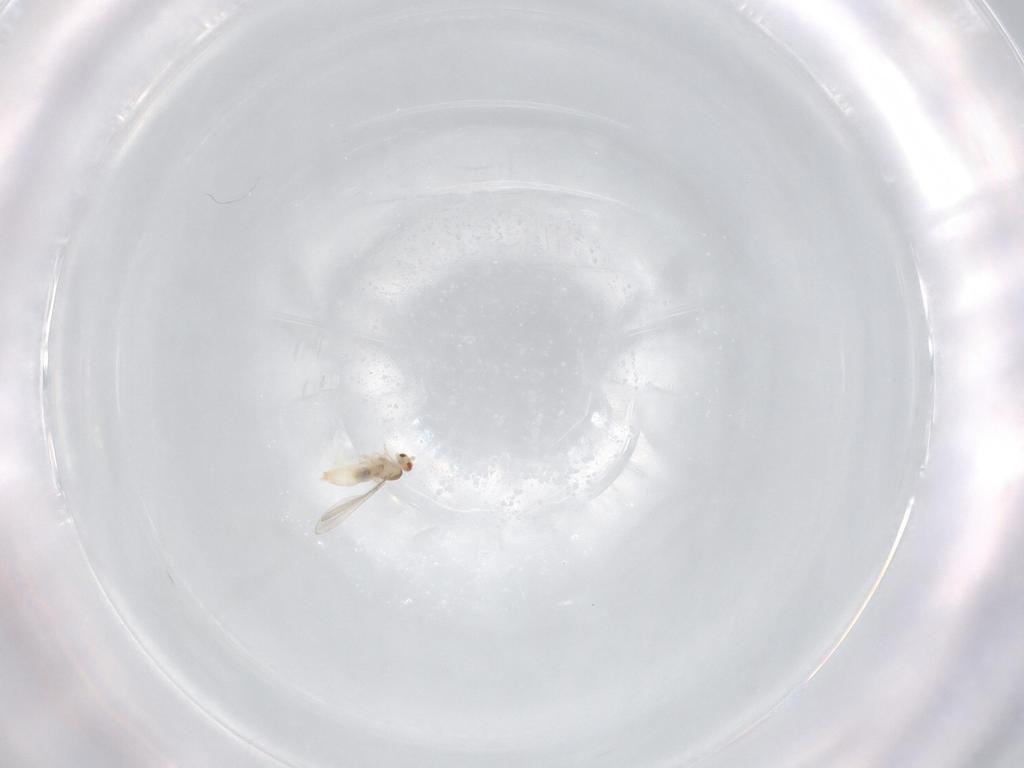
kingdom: Animalia
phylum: Arthropoda
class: Insecta
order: Diptera
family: Cecidomyiidae
